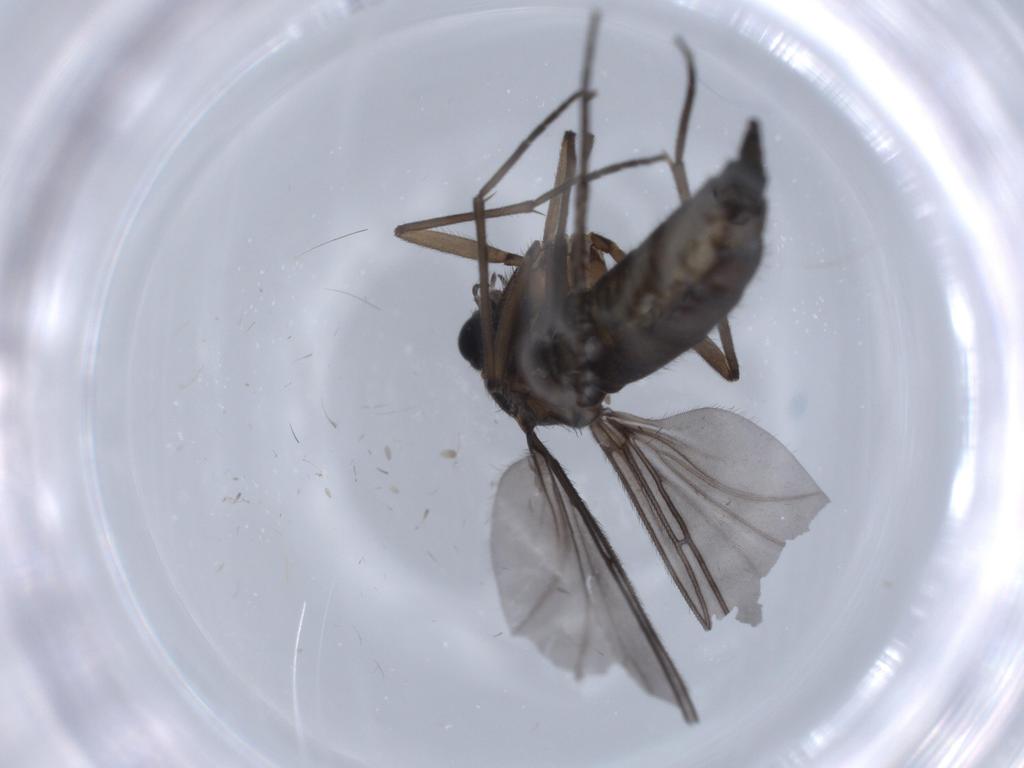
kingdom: Animalia
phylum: Arthropoda
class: Insecta
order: Diptera
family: Sciaridae
